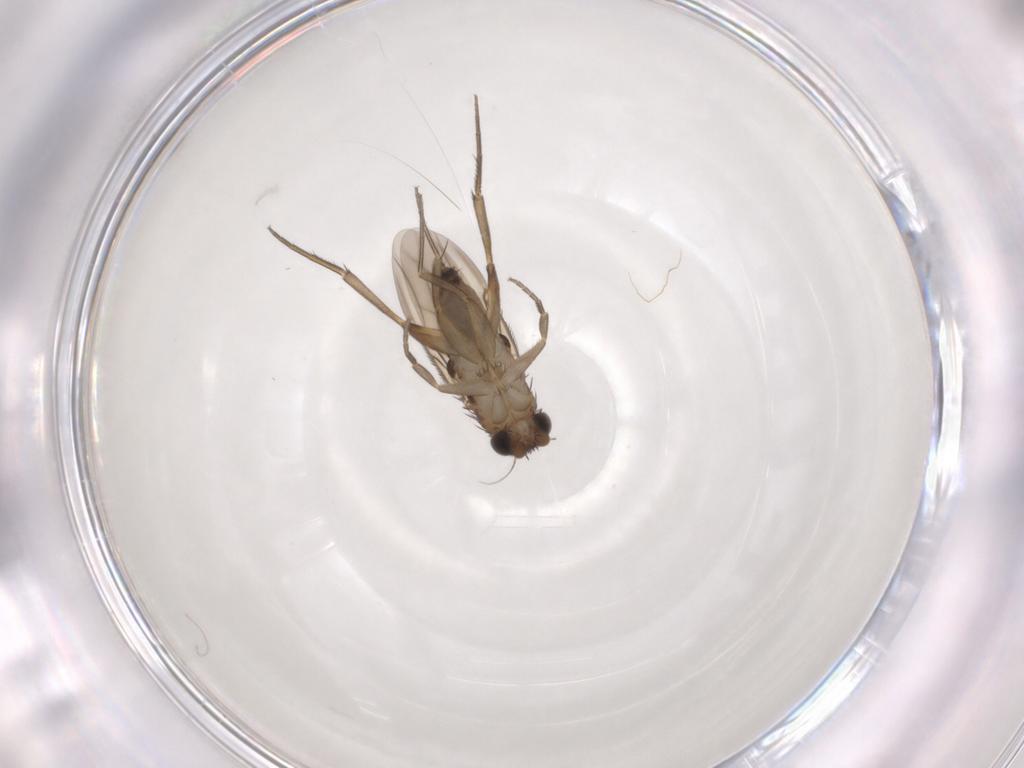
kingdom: Animalia
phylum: Arthropoda
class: Insecta
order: Diptera
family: Phoridae
